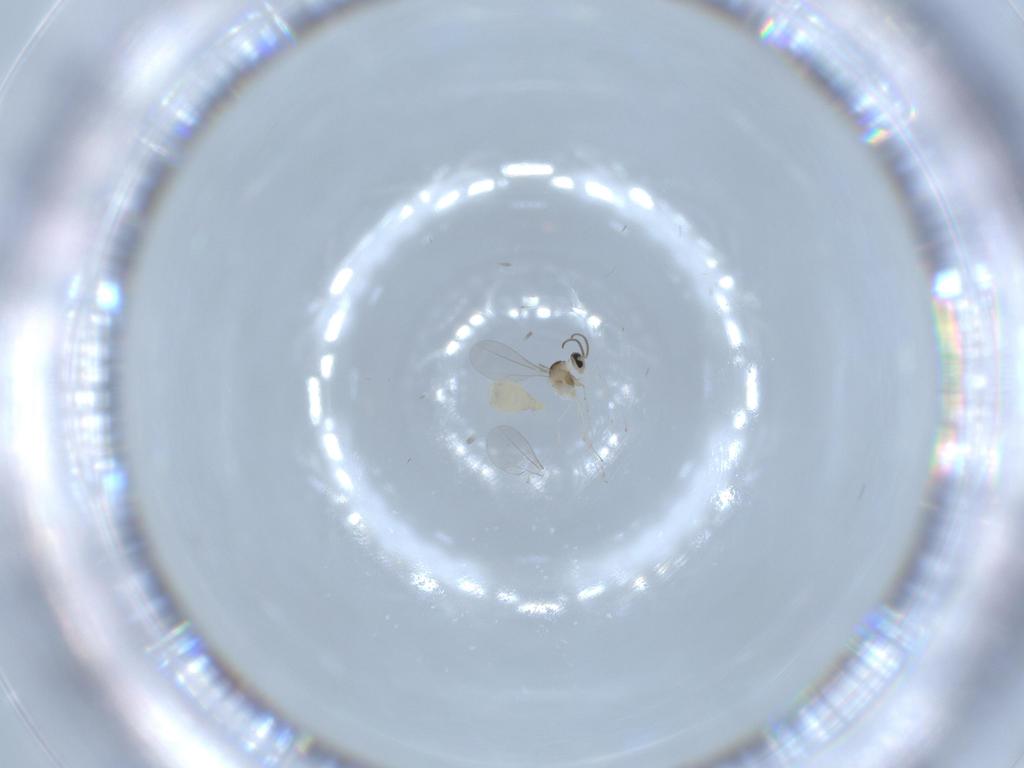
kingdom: Animalia
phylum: Arthropoda
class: Insecta
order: Diptera
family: Cecidomyiidae
